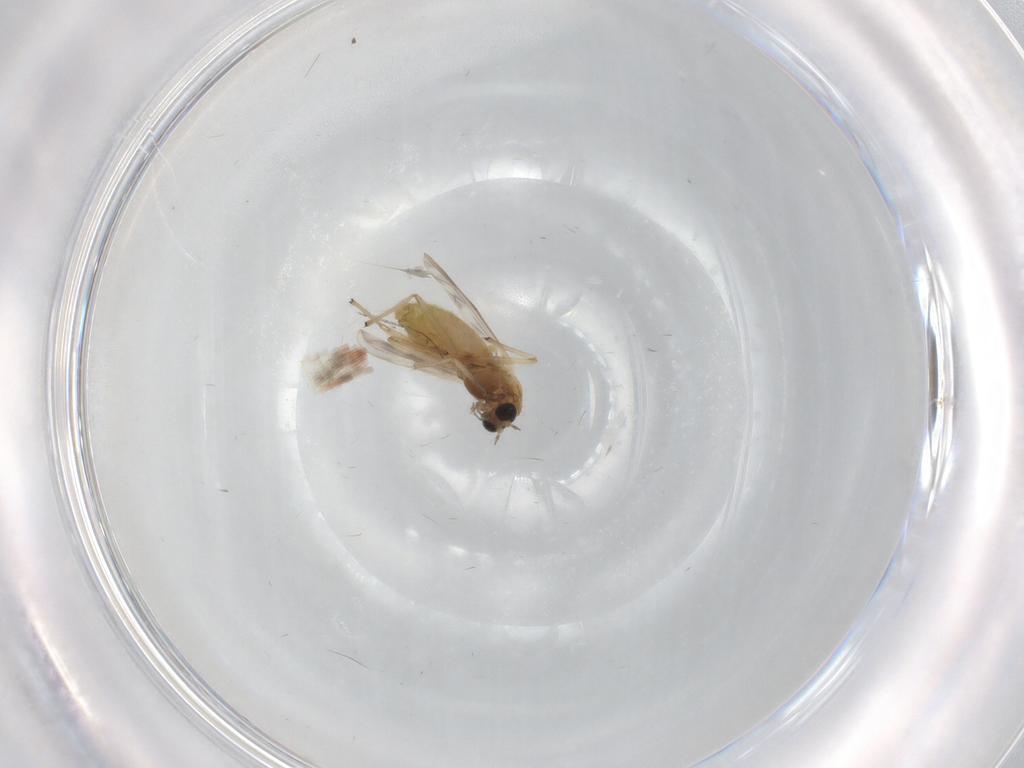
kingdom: Animalia
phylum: Arthropoda
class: Insecta
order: Diptera
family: Chironomidae
